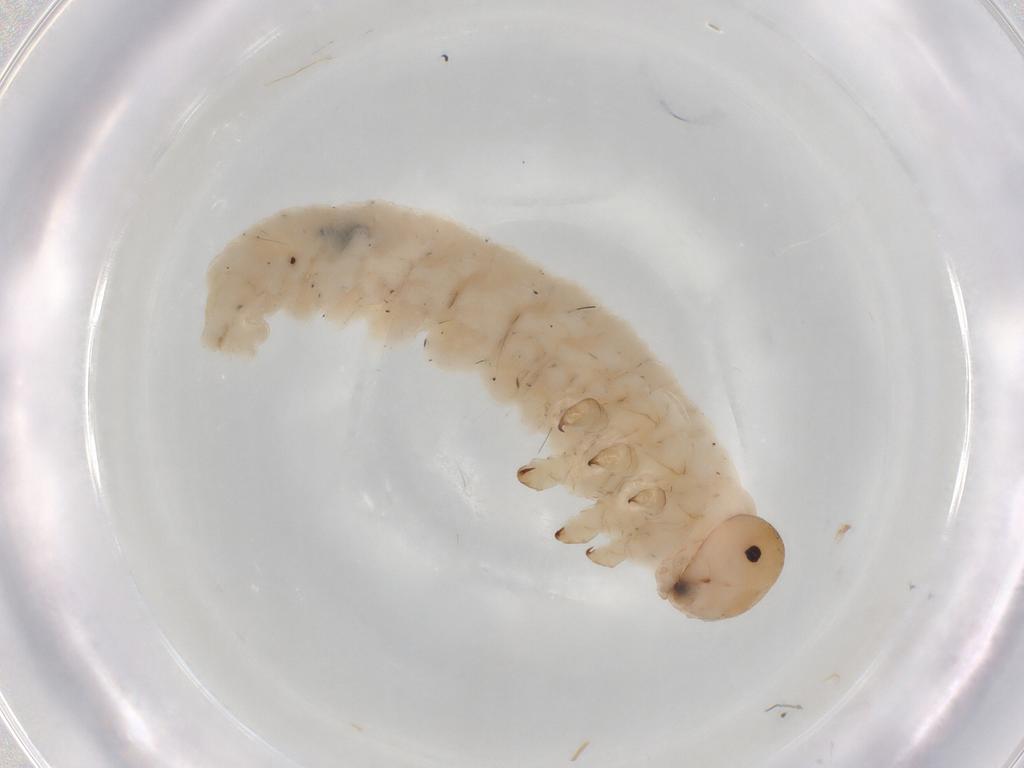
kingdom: Animalia
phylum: Arthropoda
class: Insecta
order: Hymenoptera
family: Tenthredinidae
